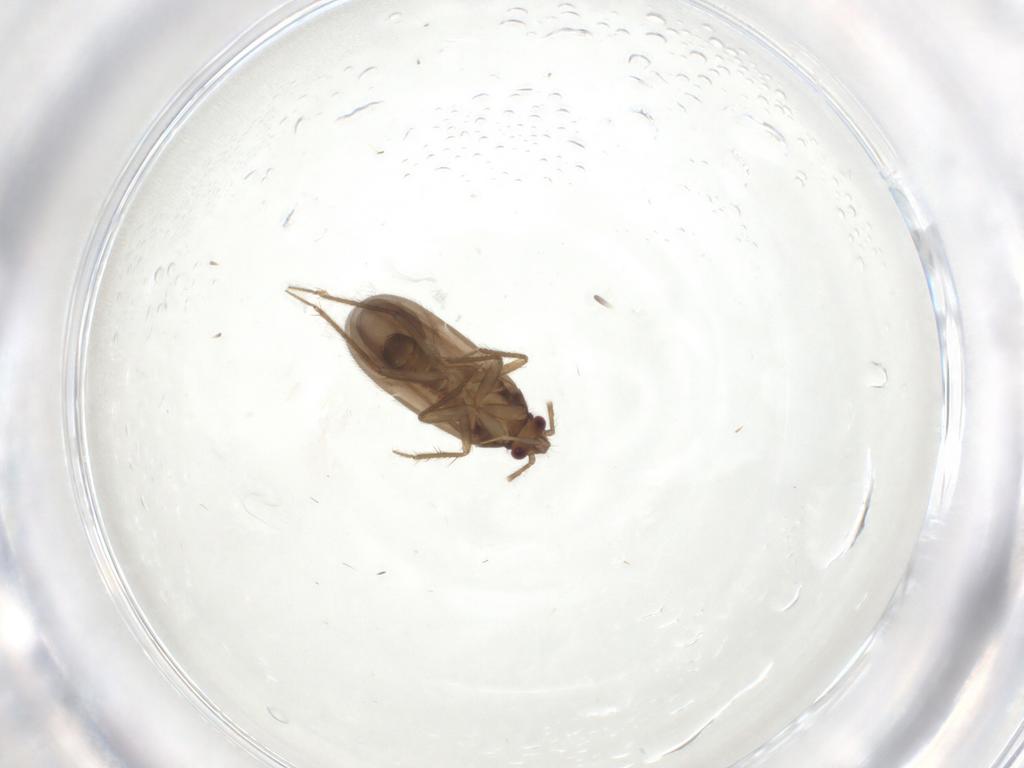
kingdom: Animalia
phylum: Arthropoda
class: Insecta
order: Hemiptera
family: Ceratocombidae
